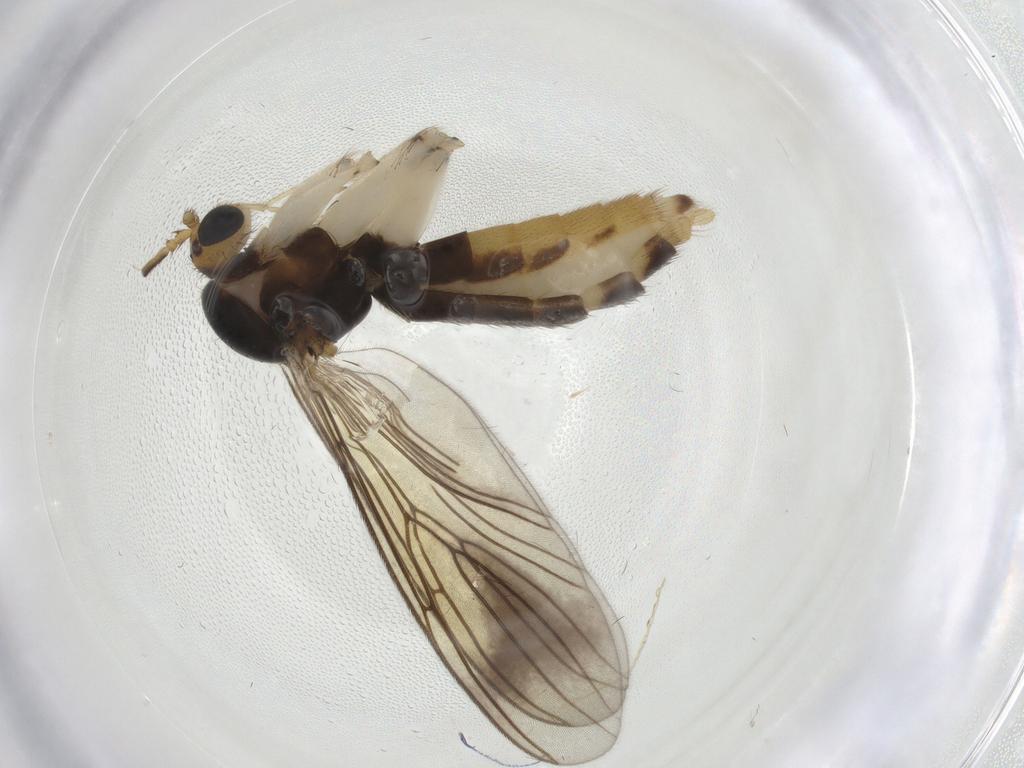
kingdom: Animalia
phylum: Arthropoda
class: Insecta
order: Diptera
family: Mycetophilidae
